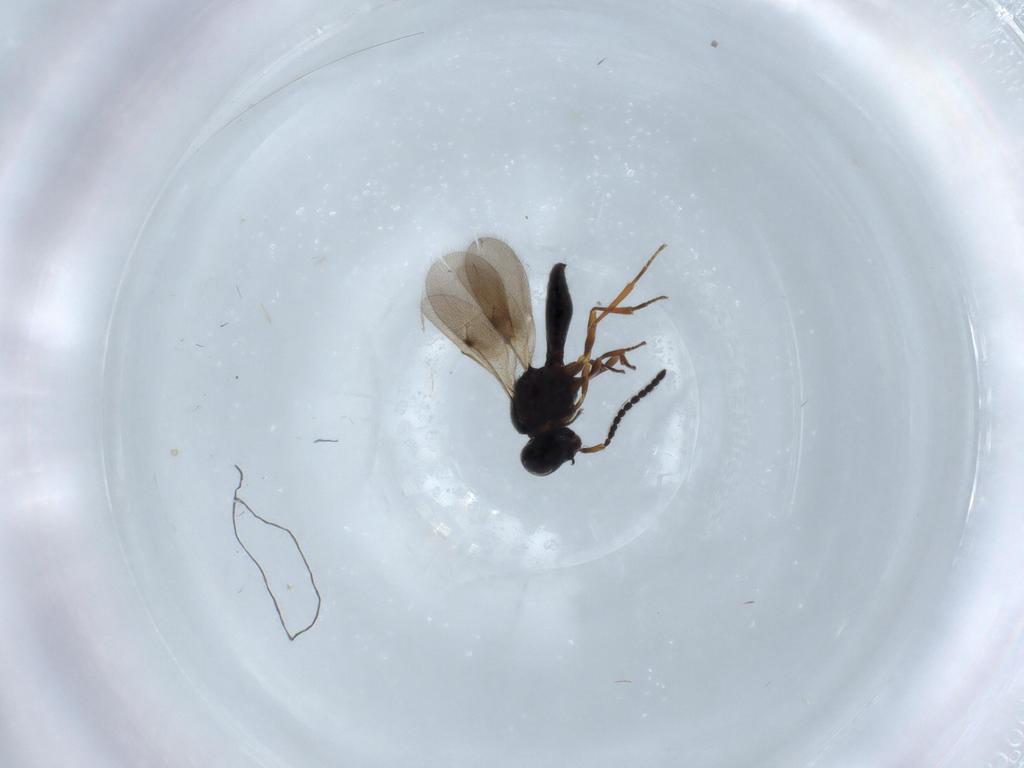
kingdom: Animalia
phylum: Arthropoda
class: Insecta
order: Hymenoptera
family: Scelionidae
